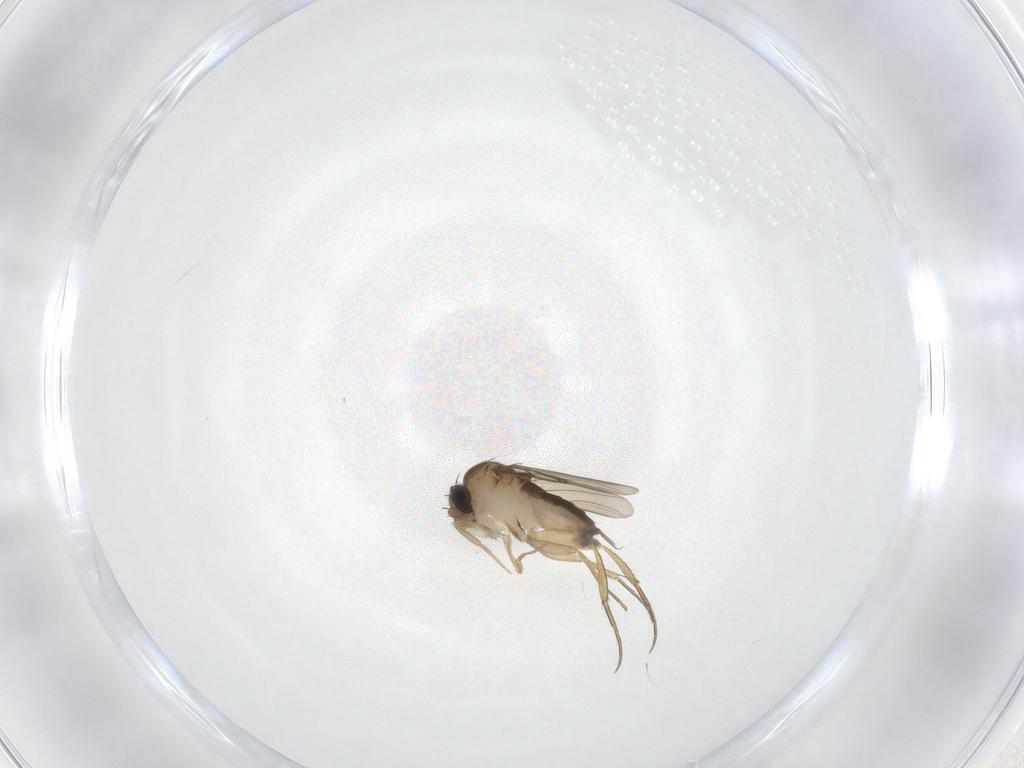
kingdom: Animalia
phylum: Arthropoda
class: Insecta
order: Diptera
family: Phoridae
